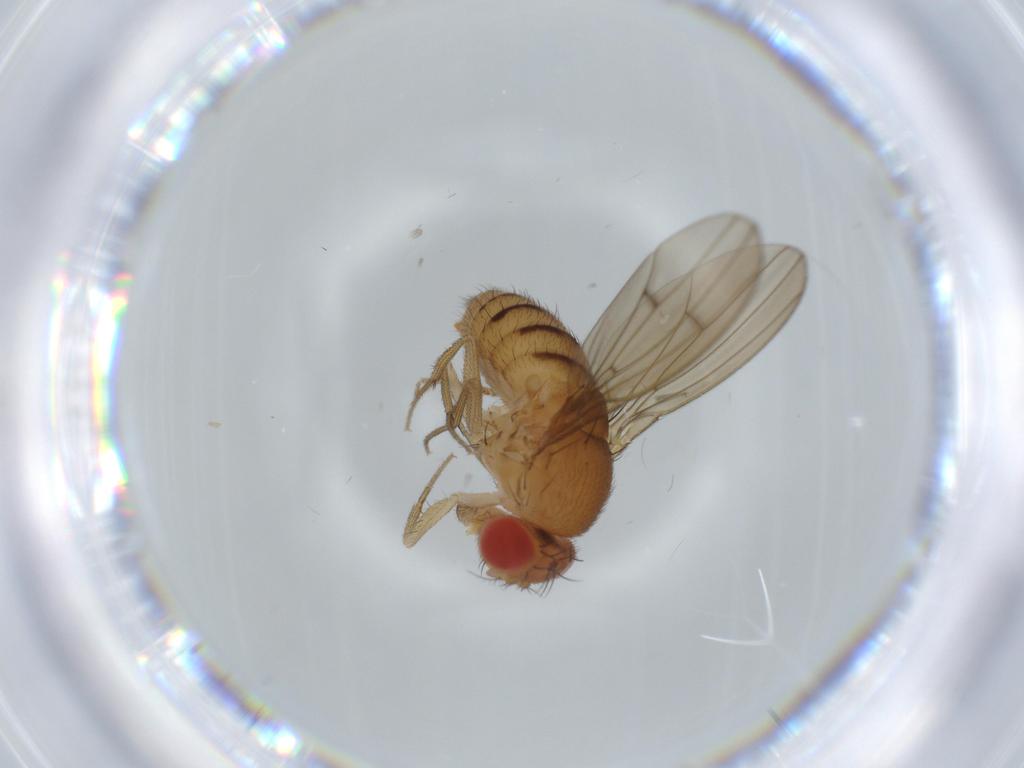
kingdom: Animalia
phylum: Arthropoda
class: Insecta
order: Diptera
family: Drosophilidae
